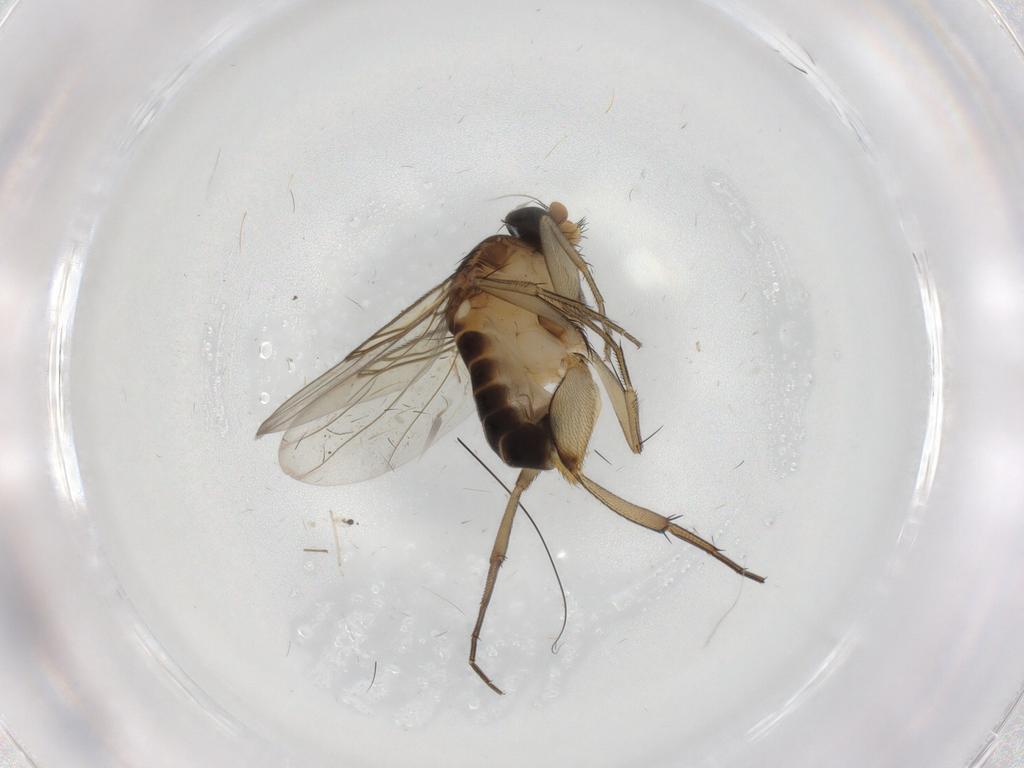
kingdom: Animalia
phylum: Arthropoda
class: Insecta
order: Diptera
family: Phoridae
